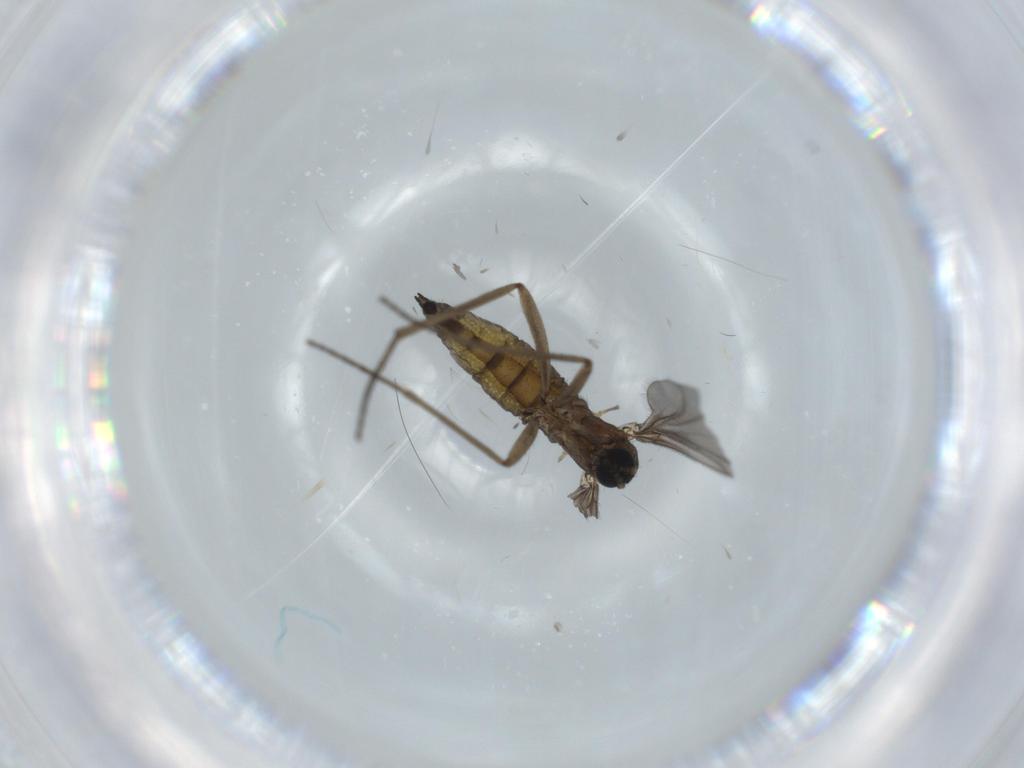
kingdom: Animalia
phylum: Arthropoda
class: Insecta
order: Diptera
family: Sciaridae
